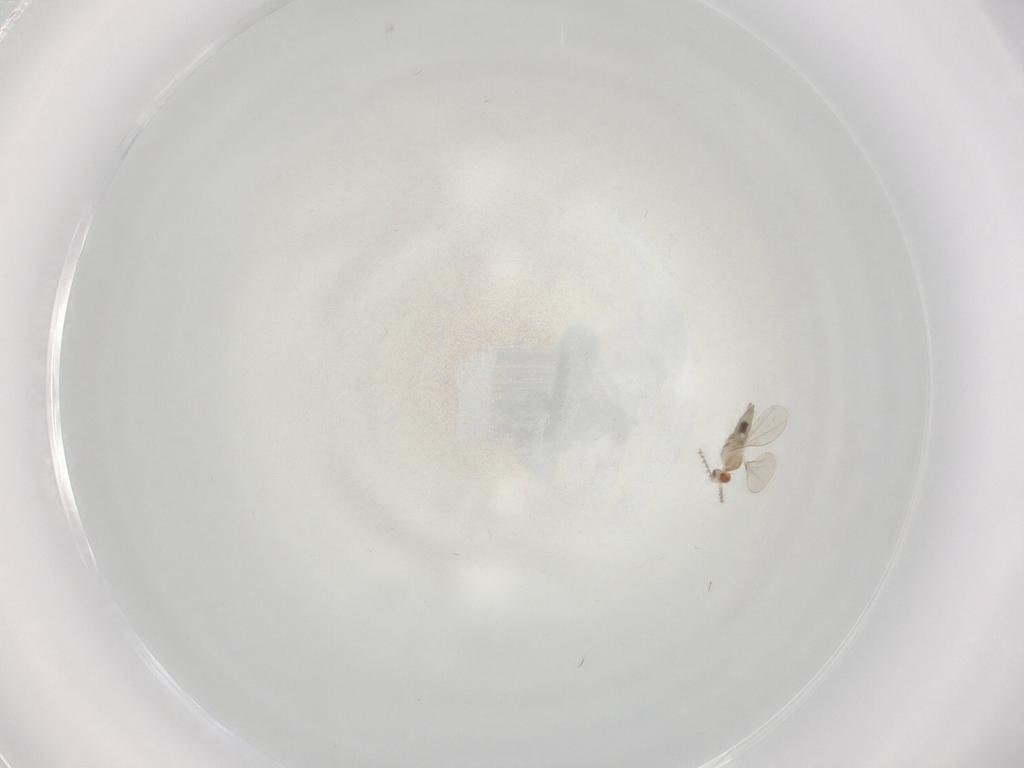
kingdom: Animalia
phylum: Arthropoda
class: Insecta
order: Diptera
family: Cecidomyiidae
